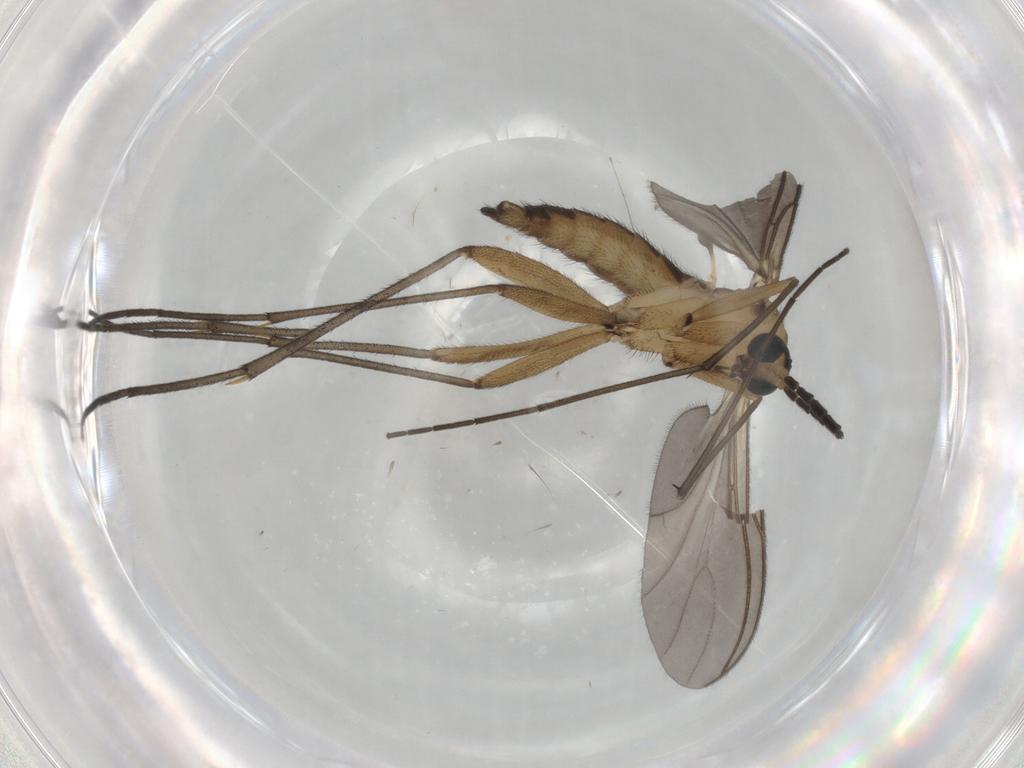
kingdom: Animalia
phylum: Arthropoda
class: Insecta
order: Diptera
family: Sciaridae
